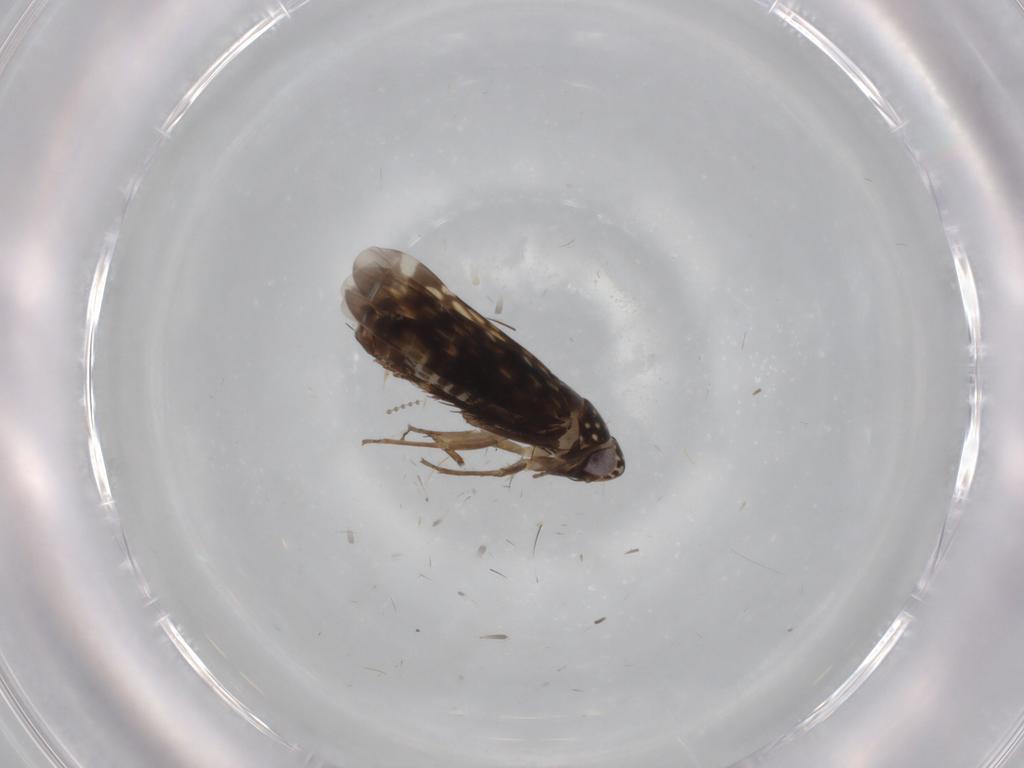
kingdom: Animalia
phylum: Arthropoda
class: Insecta
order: Hemiptera
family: Cicadellidae
